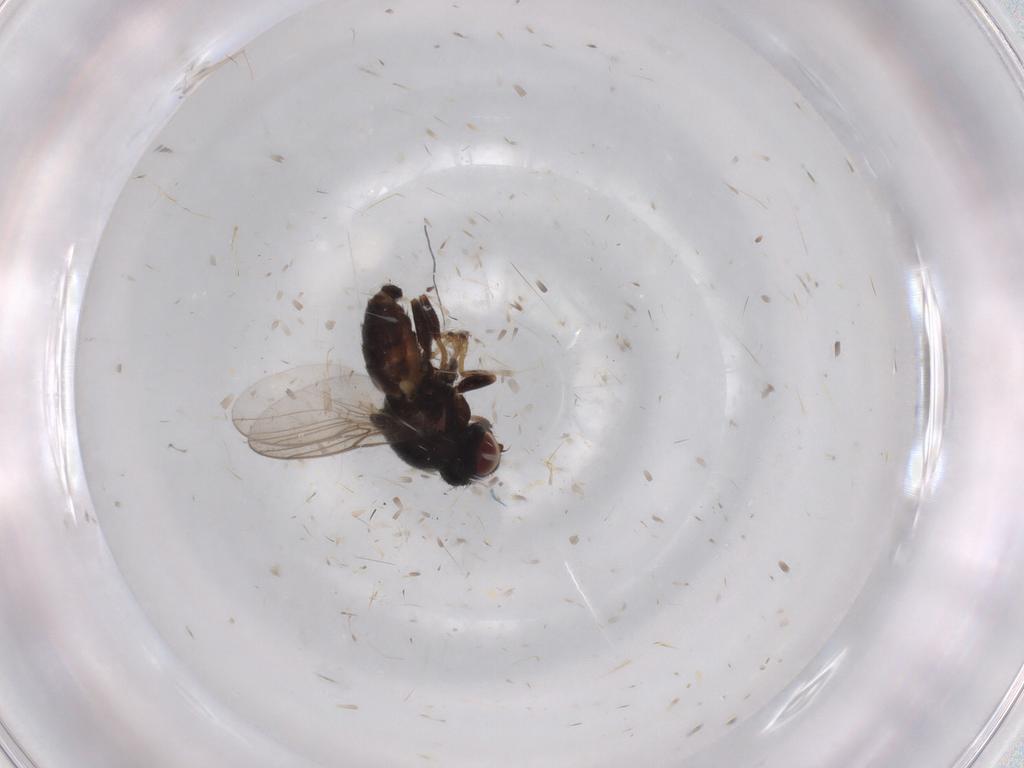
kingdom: Animalia
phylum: Arthropoda
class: Insecta
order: Diptera
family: Chloropidae
